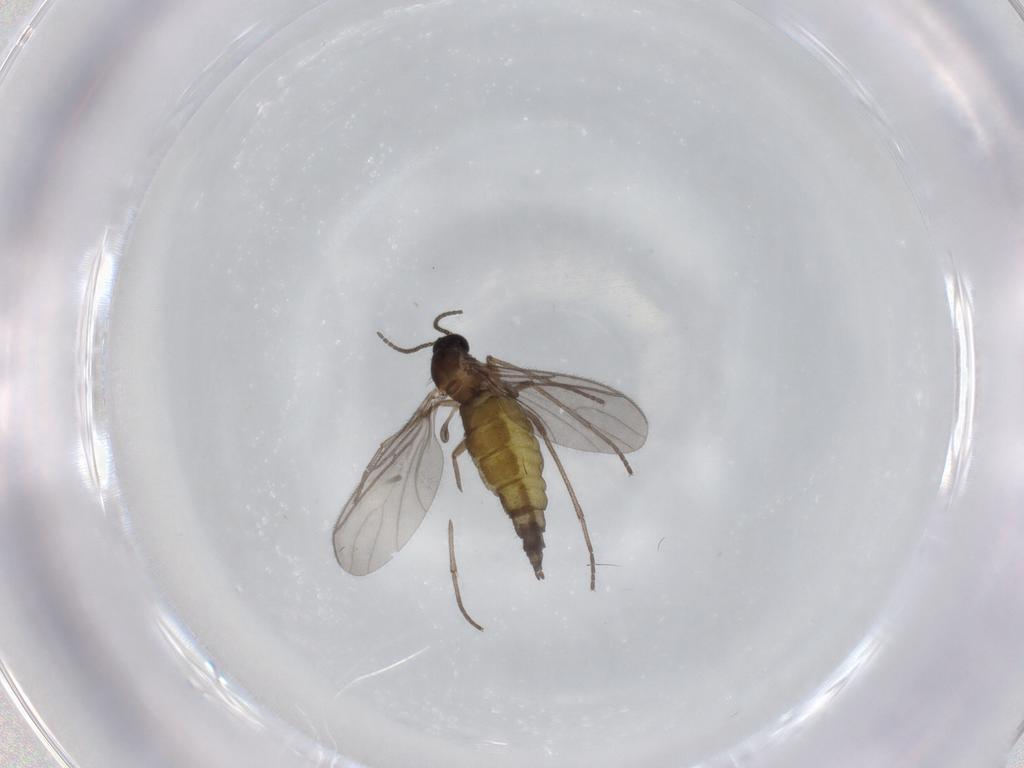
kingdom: Animalia
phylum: Arthropoda
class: Insecta
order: Diptera
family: Sciaridae
